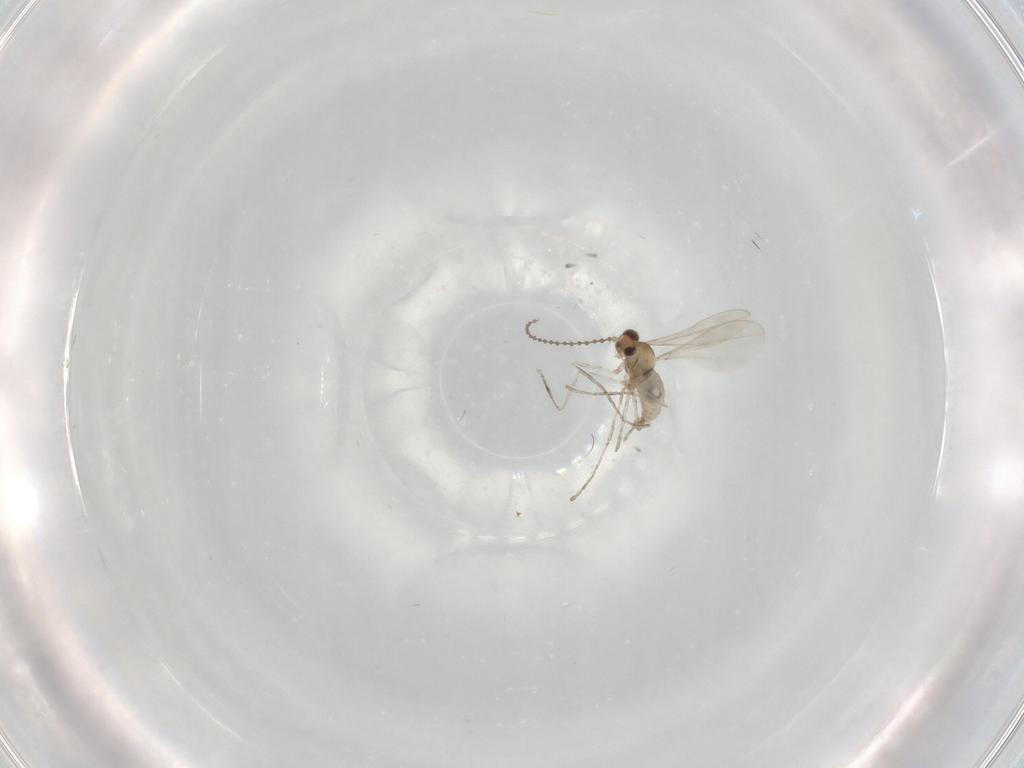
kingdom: Animalia
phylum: Arthropoda
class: Insecta
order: Diptera
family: Cecidomyiidae
